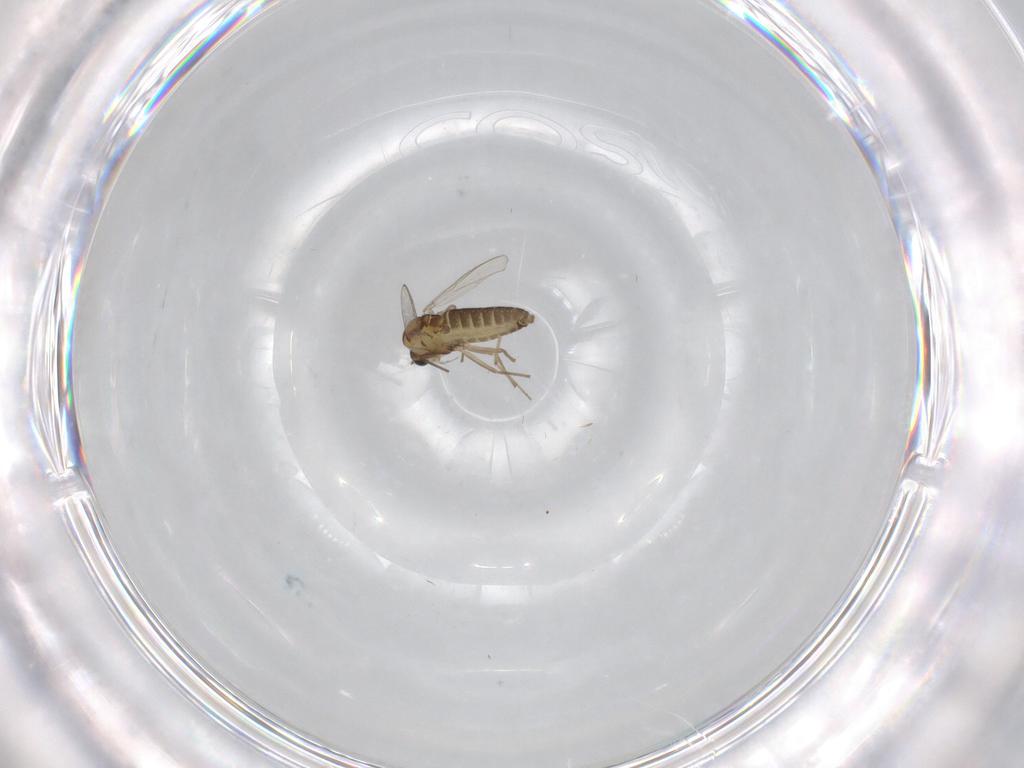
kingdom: Animalia
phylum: Arthropoda
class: Insecta
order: Diptera
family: Chironomidae
